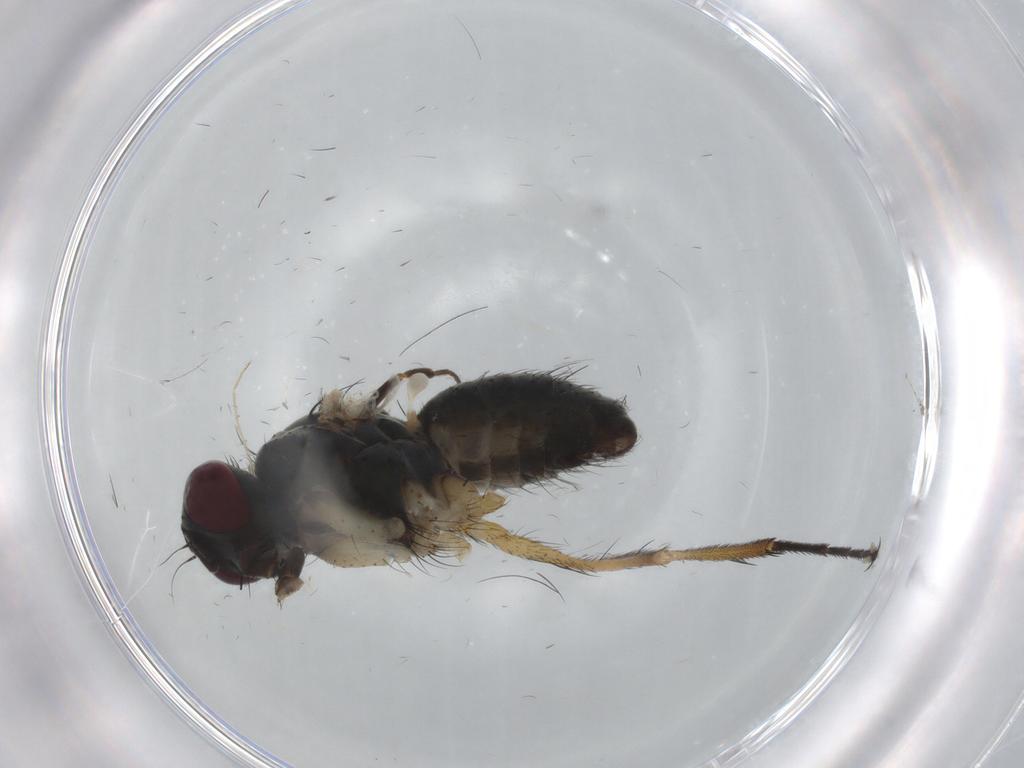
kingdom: Animalia
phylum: Arthropoda
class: Insecta
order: Diptera
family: Chironomidae
